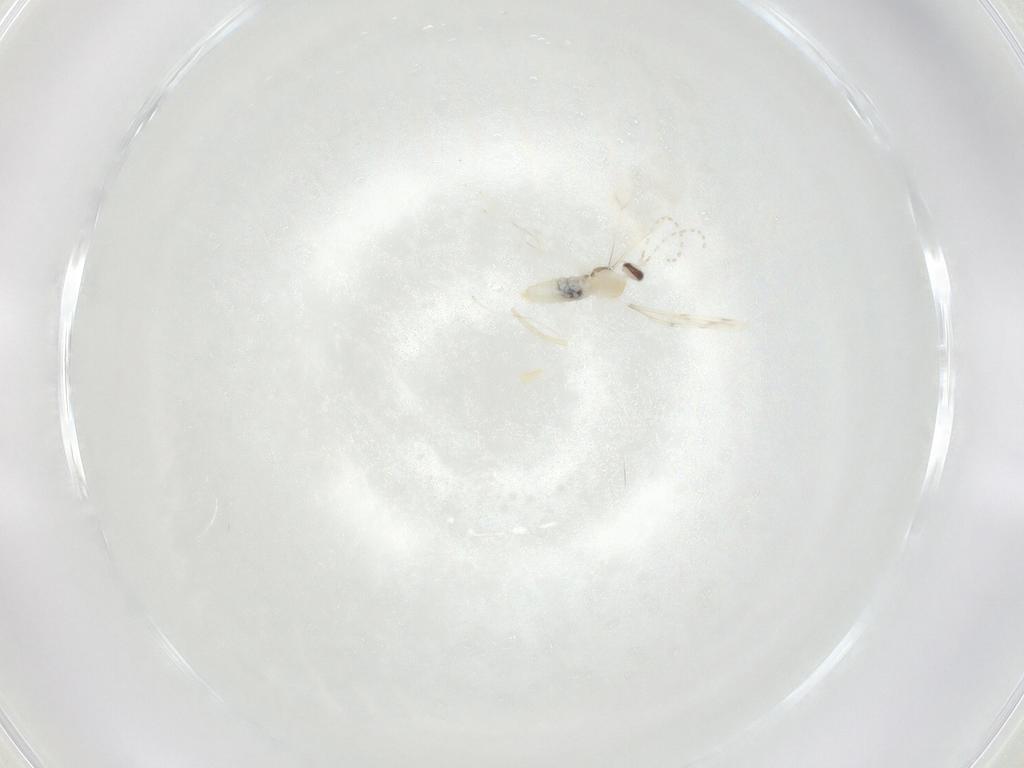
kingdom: Animalia
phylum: Arthropoda
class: Insecta
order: Diptera
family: Cecidomyiidae
